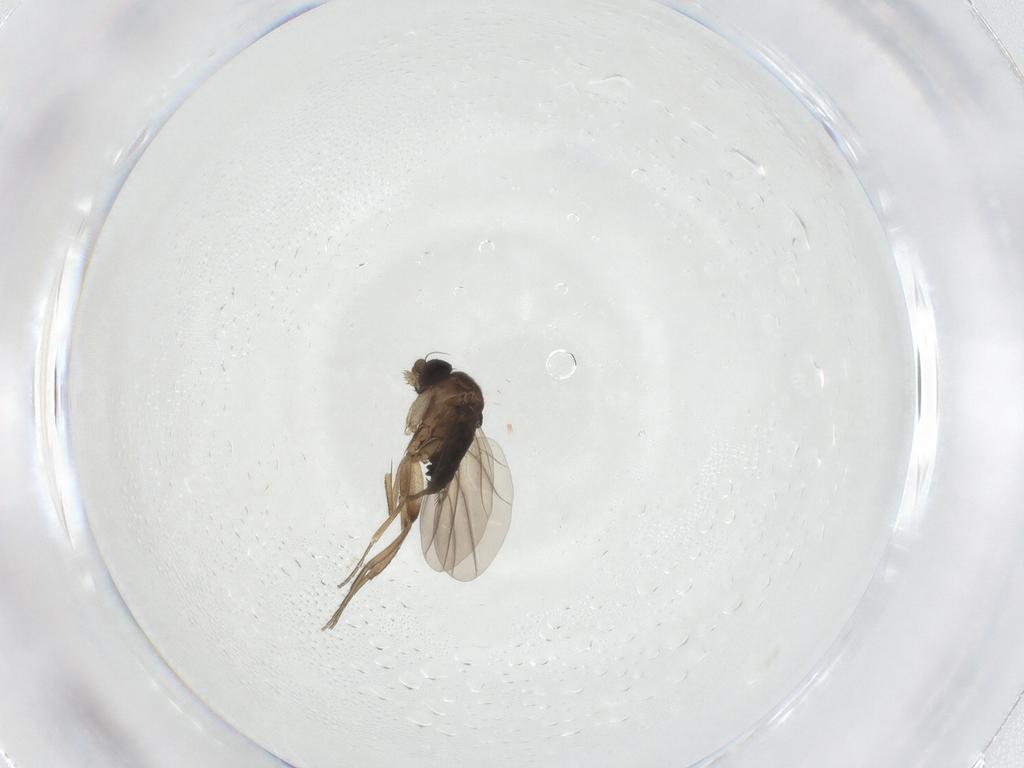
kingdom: Animalia
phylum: Arthropoda
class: Insecta
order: Diptera
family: Phoridae
